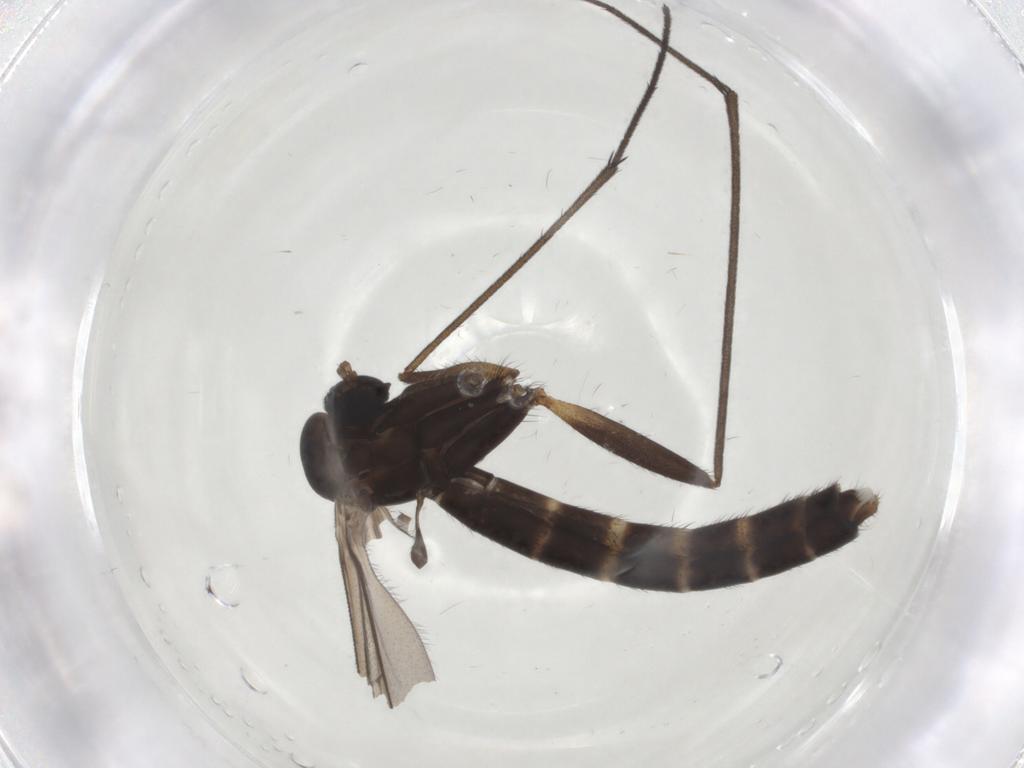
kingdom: Animalia
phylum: Arthropoda
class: Insecta
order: Diptera
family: Ditomyiidae
